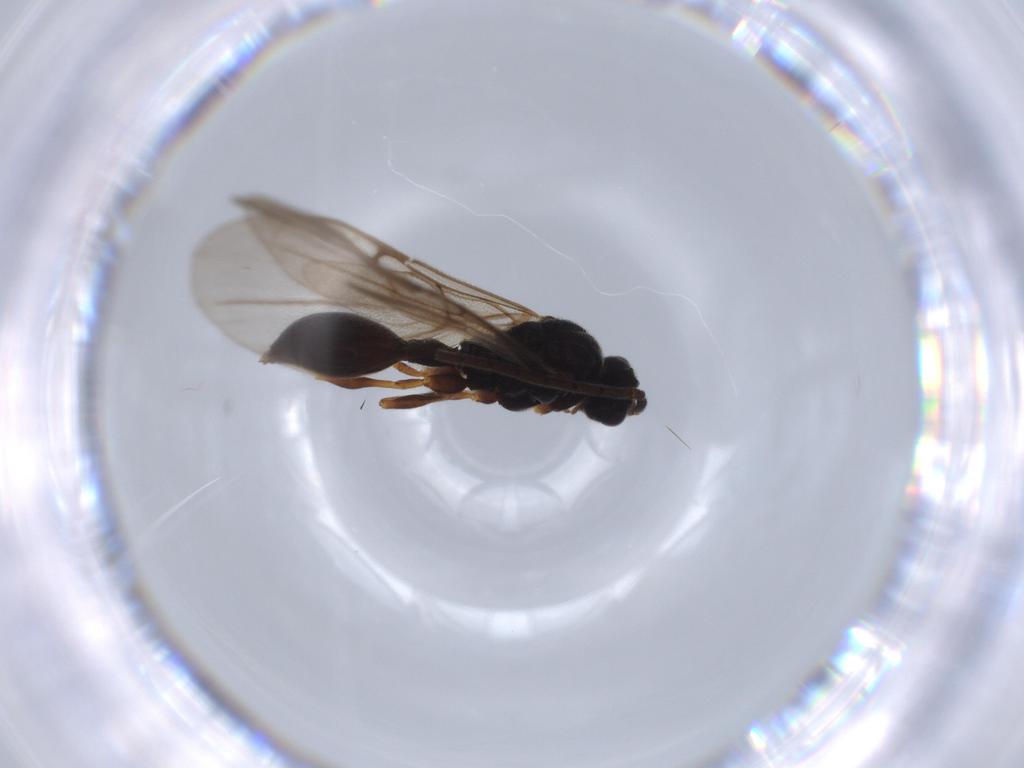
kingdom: Animalia
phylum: Arthropoda
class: Insecta
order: Hymenoptera
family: Diapriidae
